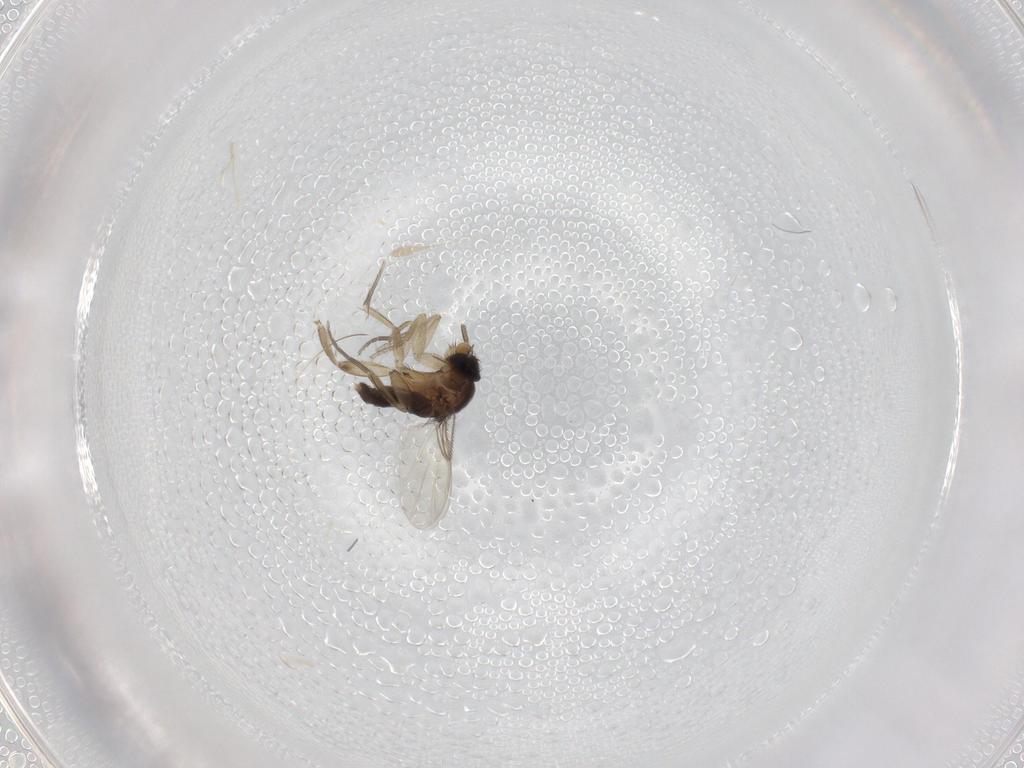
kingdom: Animalia
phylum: Arthropoda
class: Insecta
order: Diptera
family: Phoridae
